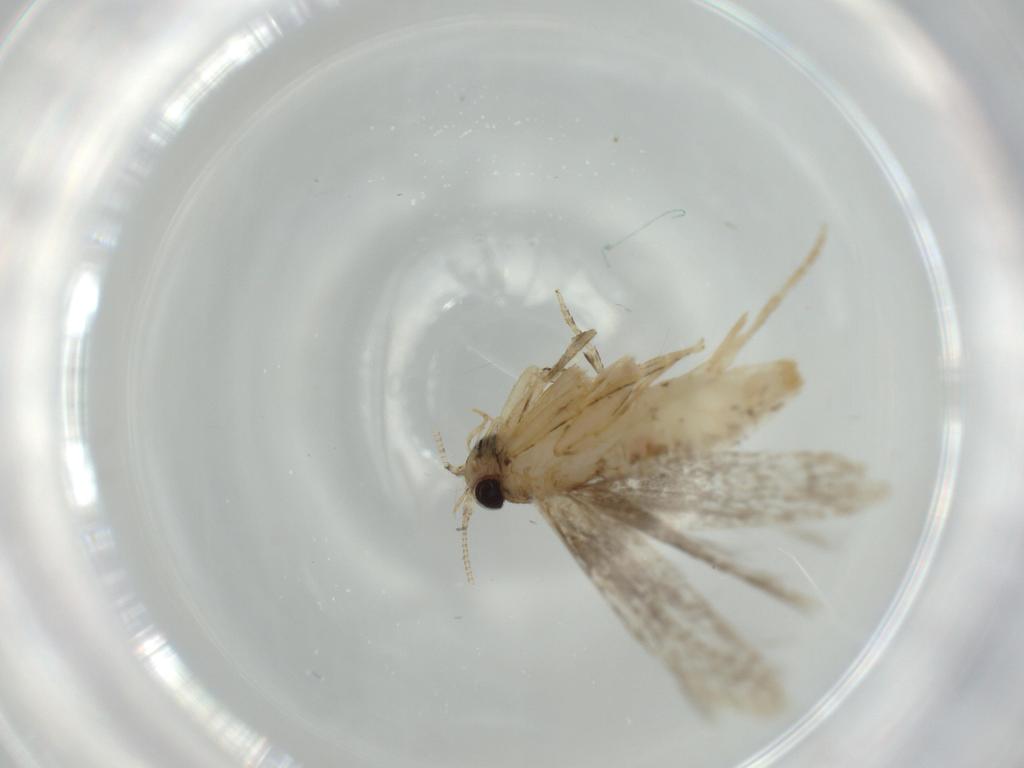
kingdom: Animalia
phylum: Arthropoda
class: Insecta
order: Lepidoptera
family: Tineidae
